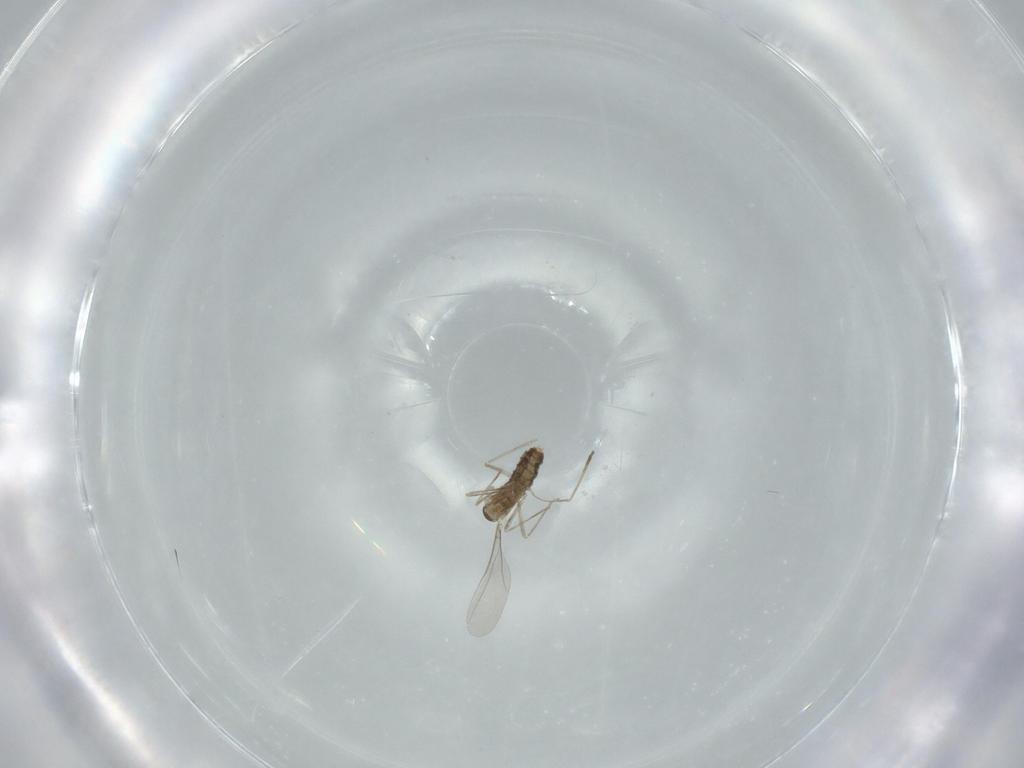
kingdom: Animalia
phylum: Arthropoda
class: Insecta
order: Diptera
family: Cecidomyiidae
